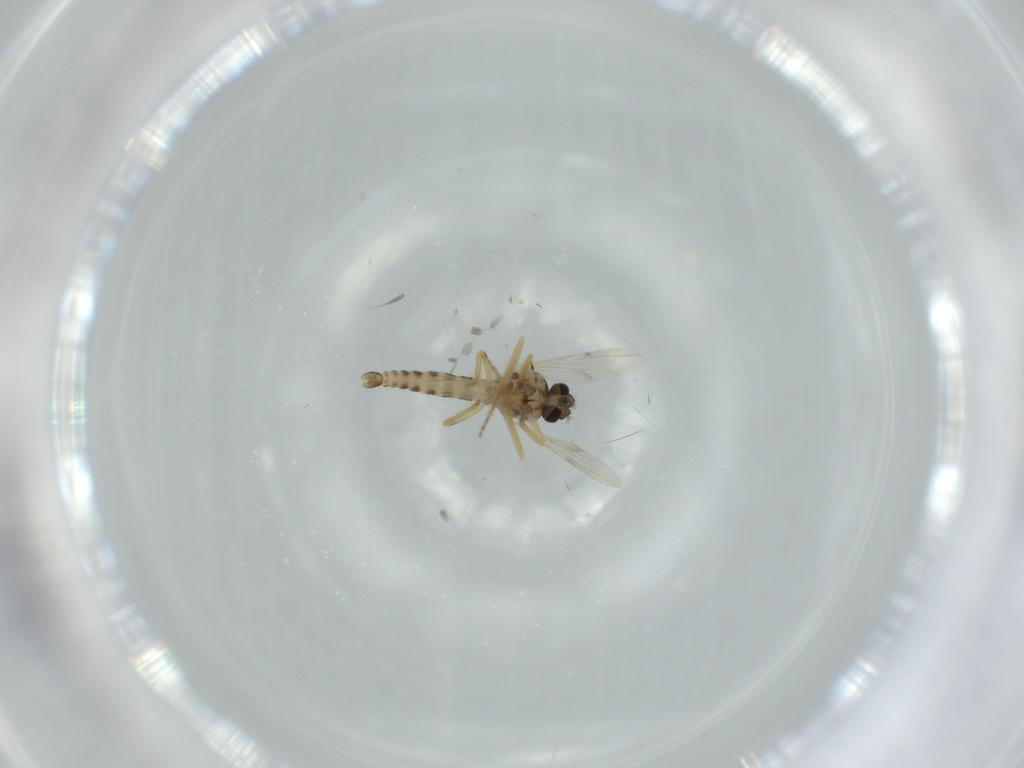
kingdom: Animalia
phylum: Arthropoda
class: Insecta
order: Diptera
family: Ceratopogonidae
